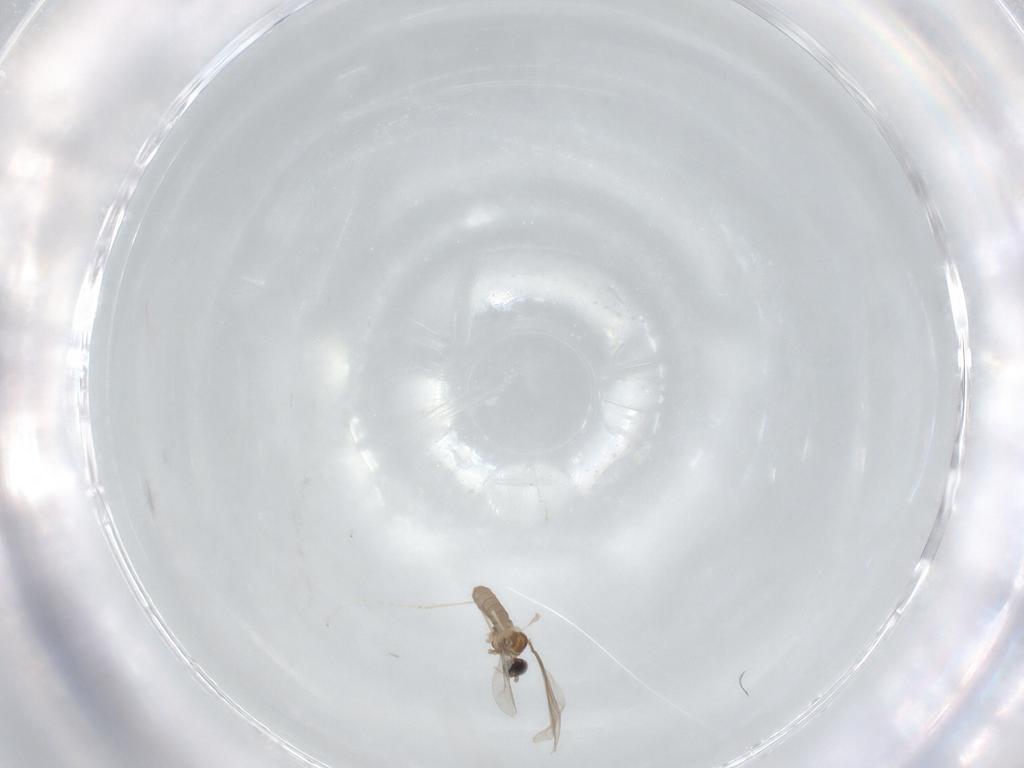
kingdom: Animalia
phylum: Arthropoda
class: Insecta
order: Diptera
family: Cecidomyiidae
